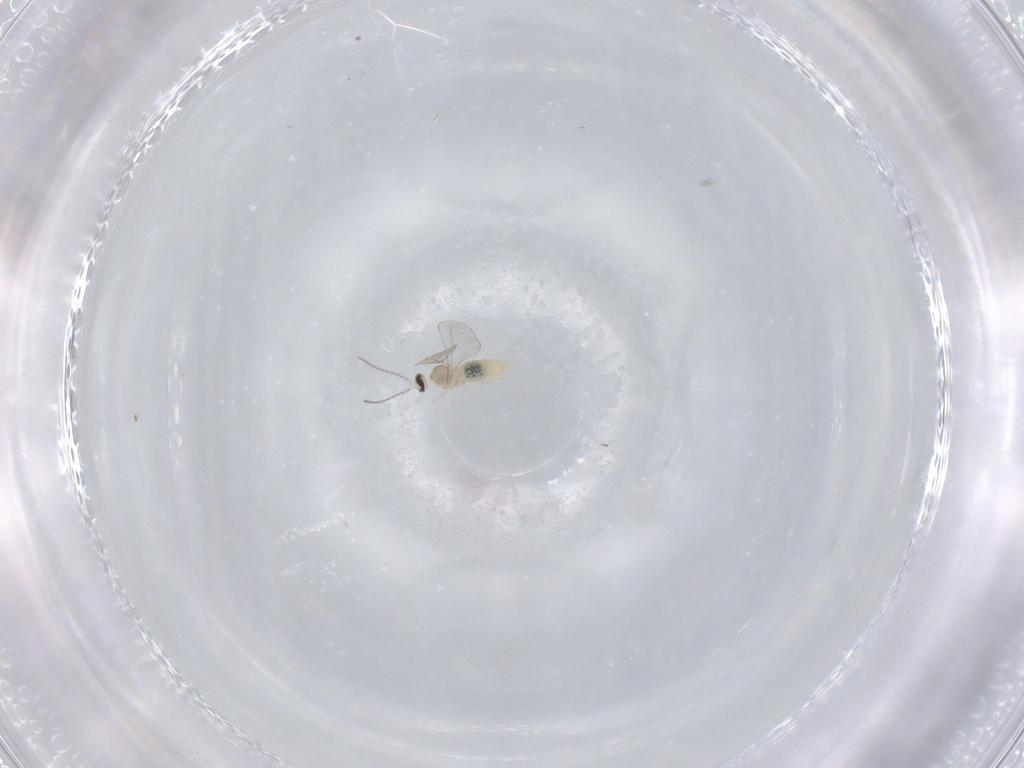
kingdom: Animalia
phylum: Arthropoda
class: Insecta
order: Diptera
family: Sciaridae
